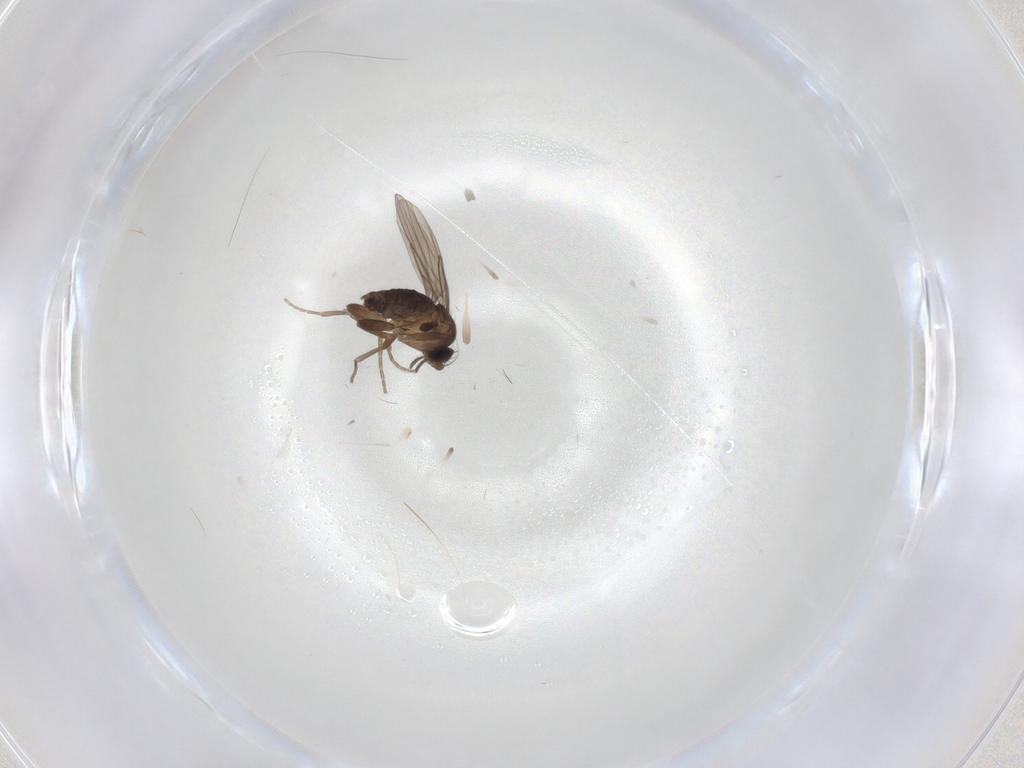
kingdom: Animalia
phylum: Arthropoda
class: Insecta
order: Diptera
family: Phoridae
